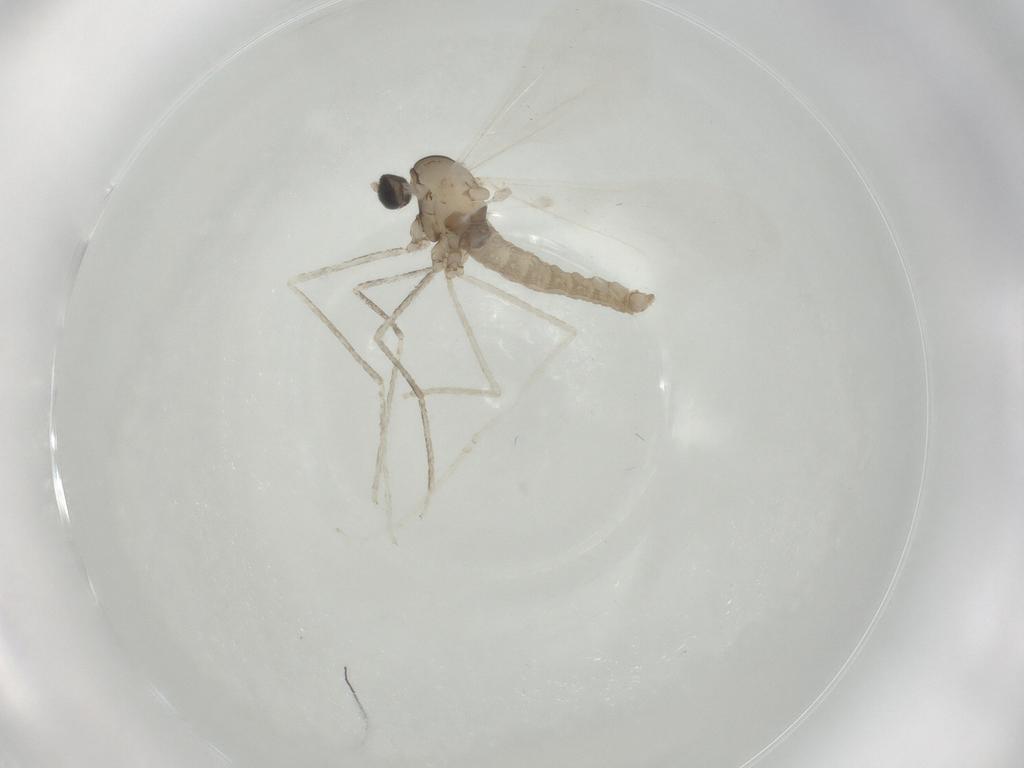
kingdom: Animalia
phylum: Arthropoda
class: Insecta
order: Diptera
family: Cecidomyiidae
